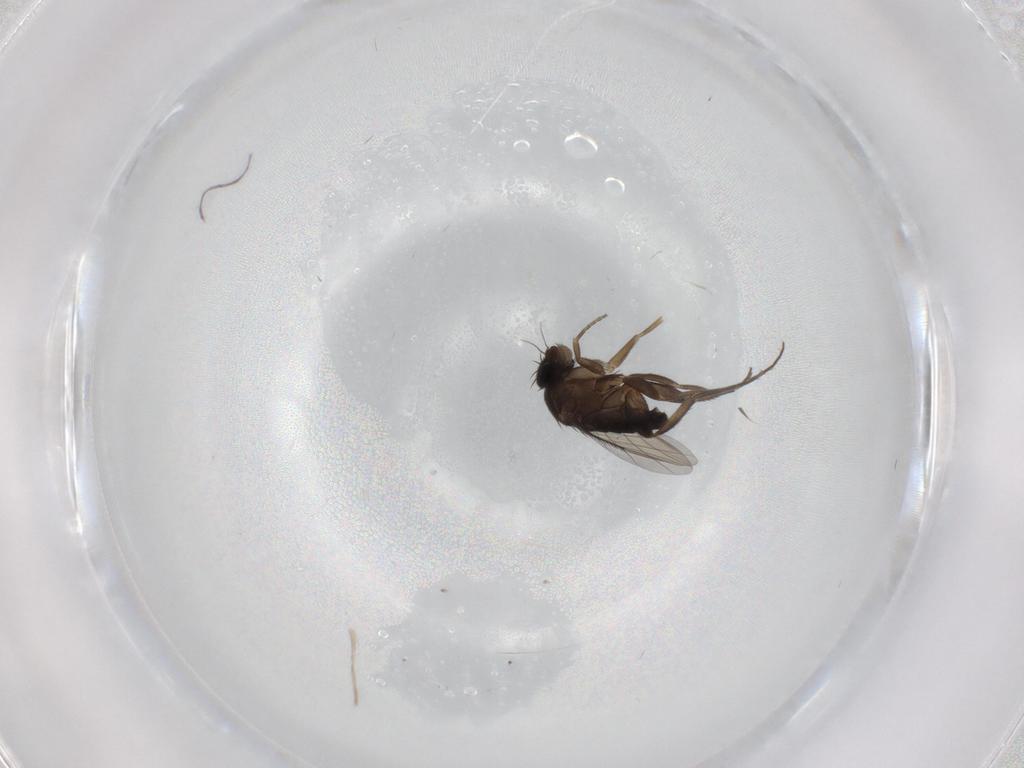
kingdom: Animalia
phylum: Arthropoda
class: Insecta
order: Diptera
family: Phoridae
